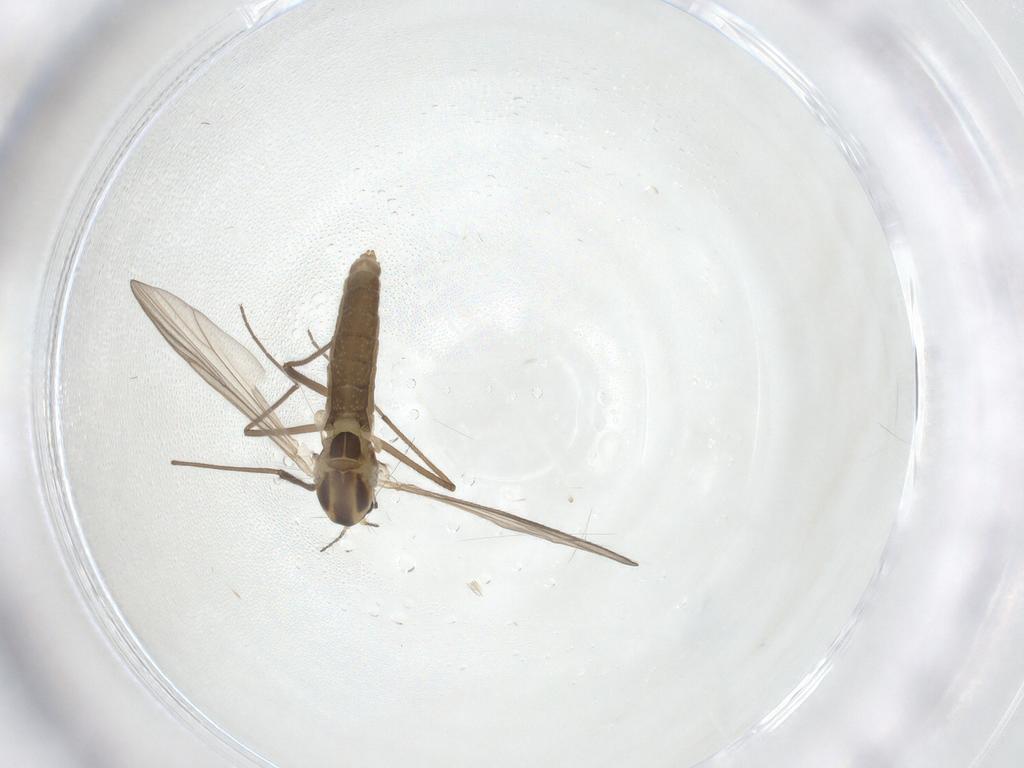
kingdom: Animalia
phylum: Arthropoda
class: Insecta
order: Diptera
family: Chironomidae
